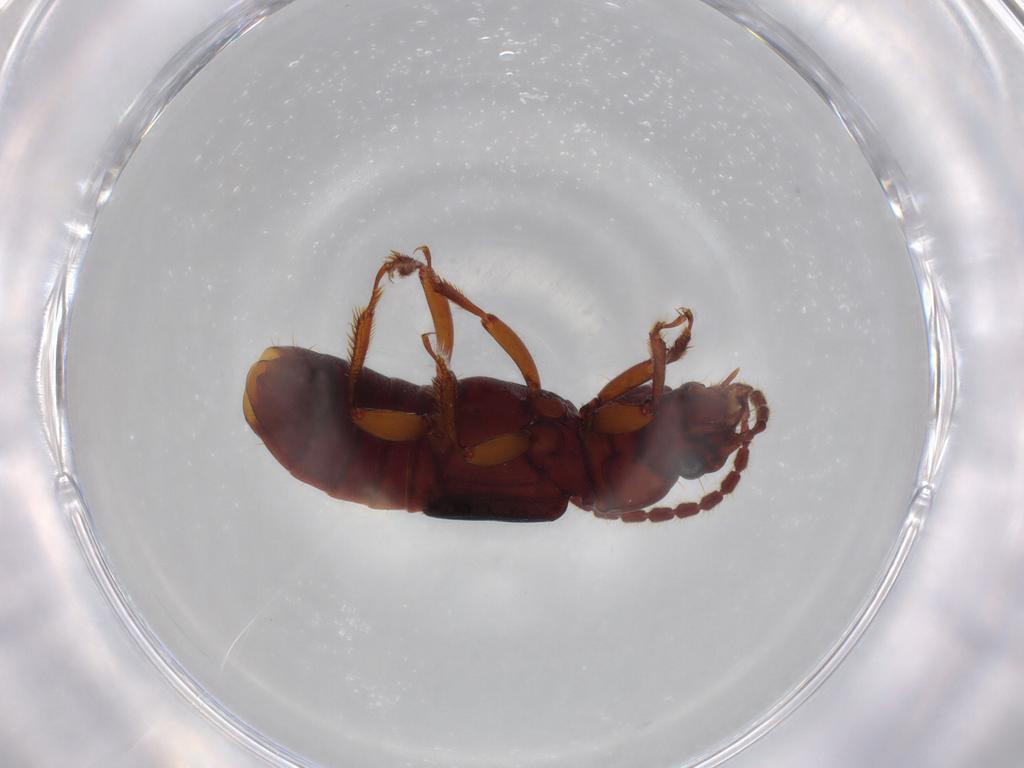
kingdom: Animalia
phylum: Arthropoda
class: Insecta
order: Coleoptera
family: Staphylinidae
